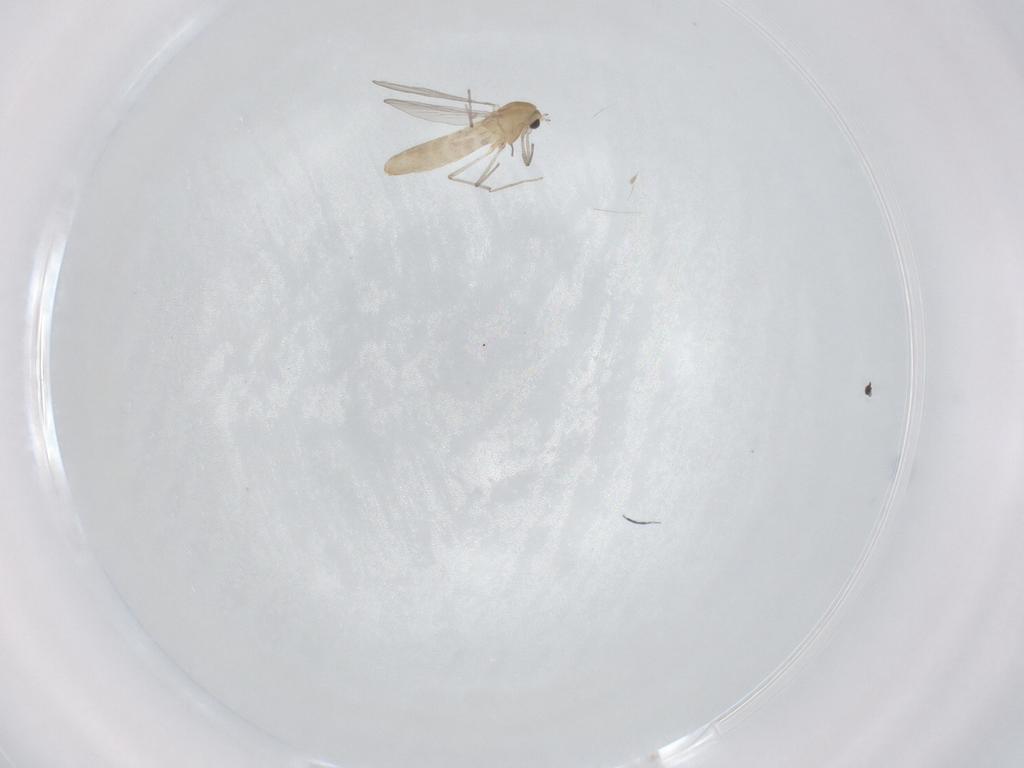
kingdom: Animalia
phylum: Arthropoda
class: Insecta
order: Diptera
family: Chironomidae
